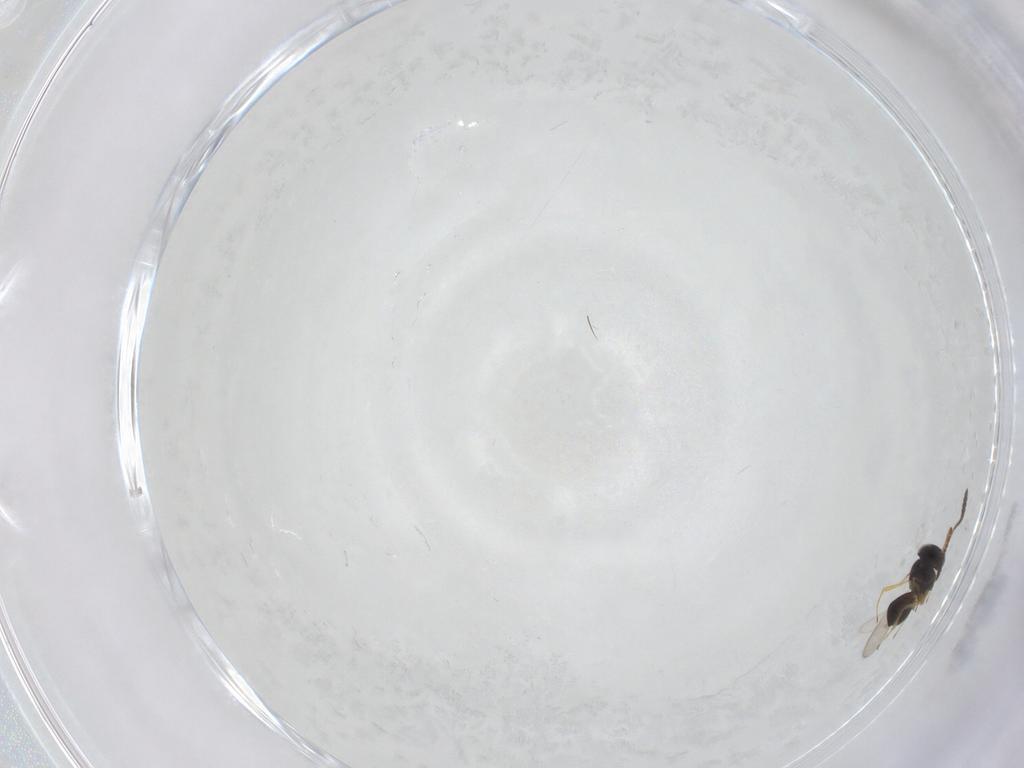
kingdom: Animalia
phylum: Arthropoda
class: Insecta
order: Hymenoptera
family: Scelionidae
